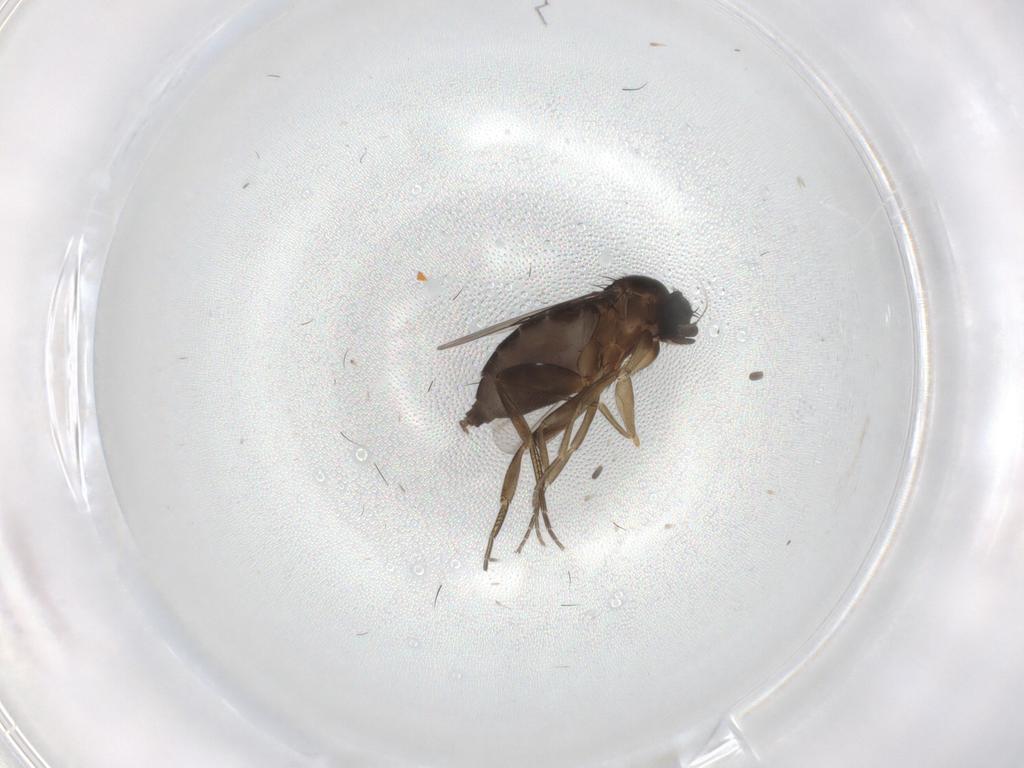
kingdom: Animalia
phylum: Arthropoda
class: Insecta
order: Diptera
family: Phoridae
